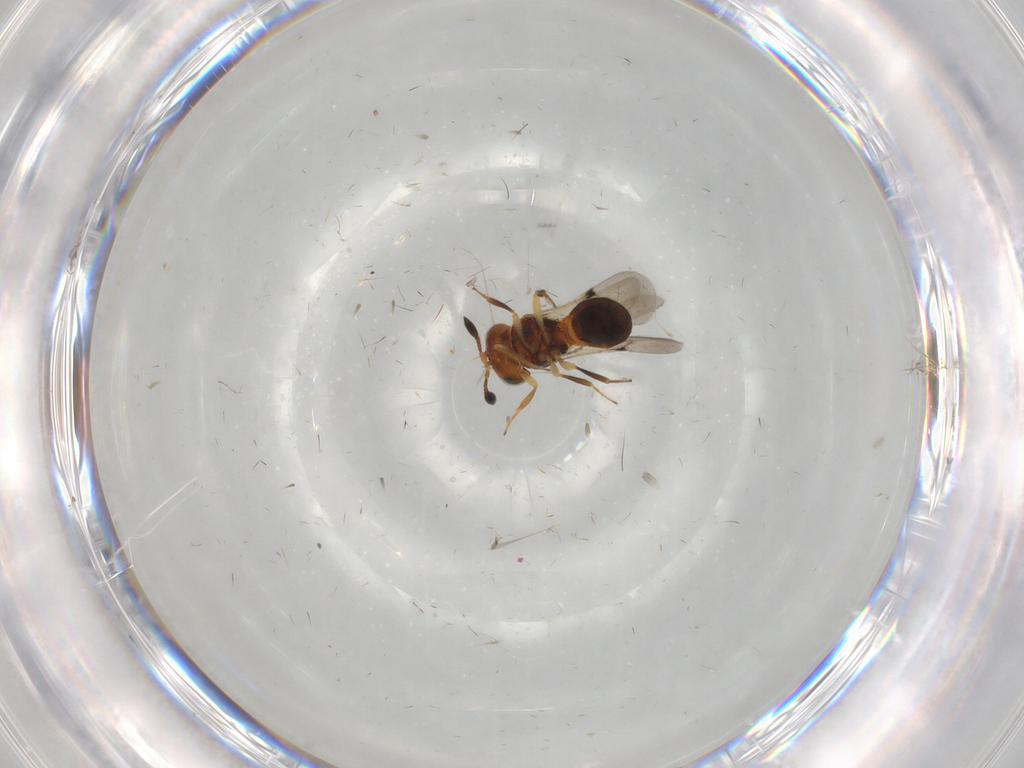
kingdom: Animalia
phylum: Arthropoda
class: Insecta
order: Hymenoptera
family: Scelionidae
